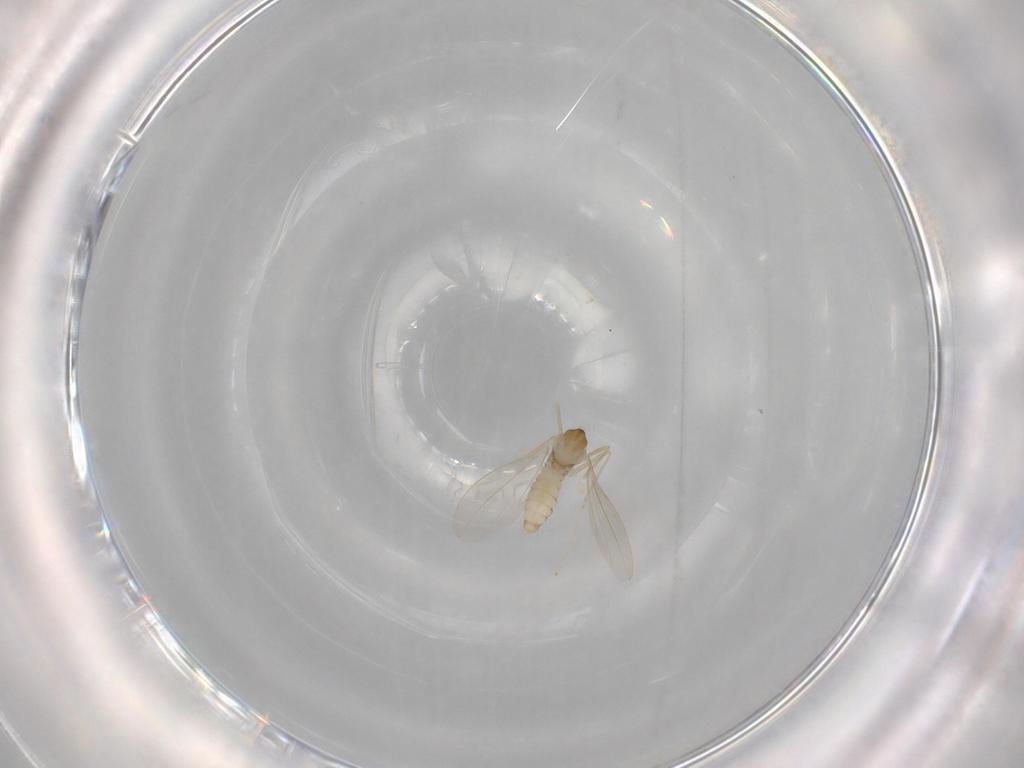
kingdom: Animalia
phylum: Arthropoda
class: Insecta
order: Diptera
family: Cecidomyiidae
